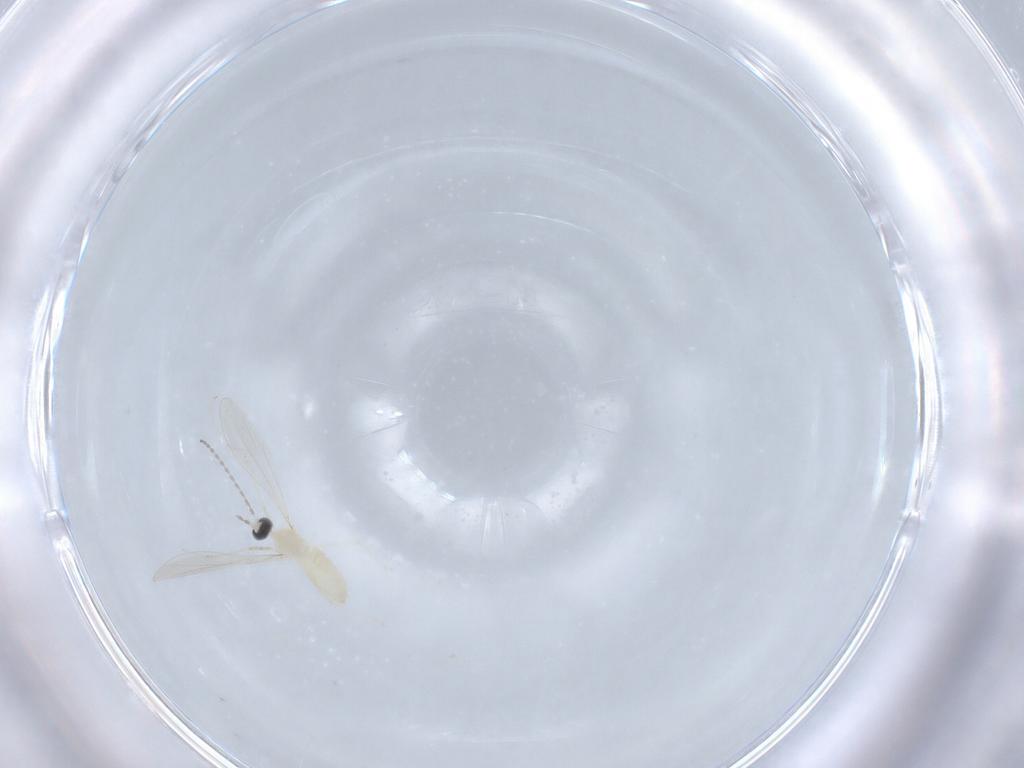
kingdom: Animalia
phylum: Arthropoda
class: Insecta
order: Diptera
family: Cecidomyiidae
